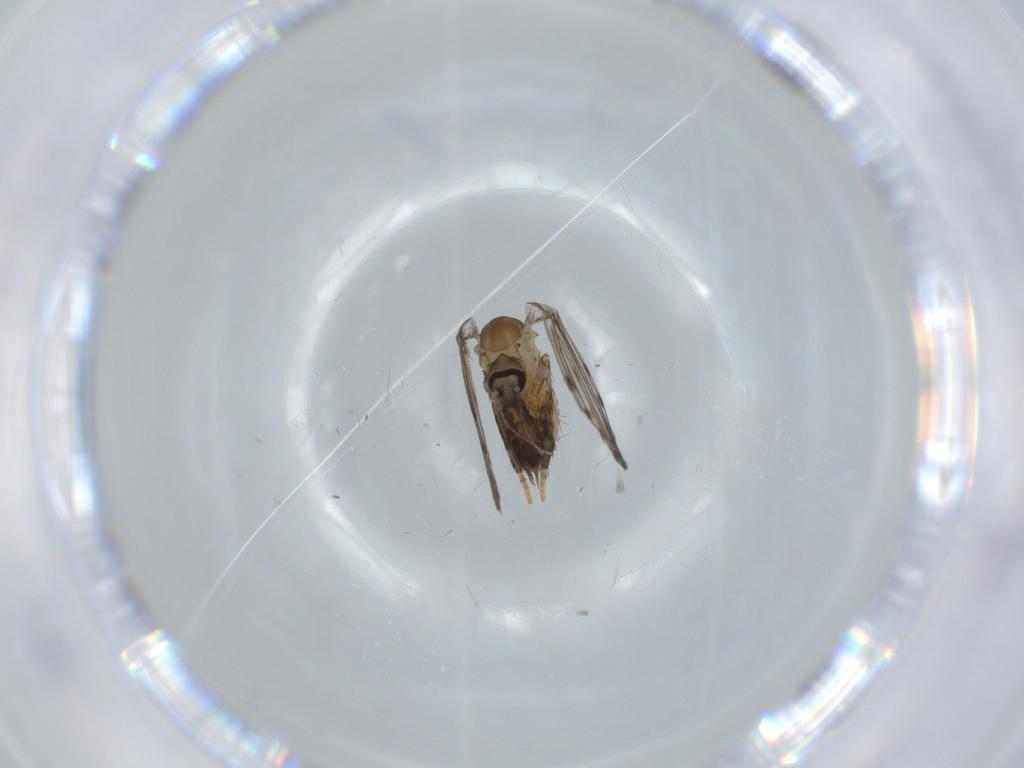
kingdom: Animalia
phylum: Arthropoda
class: Insecta
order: Diptera
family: Psychodidae
